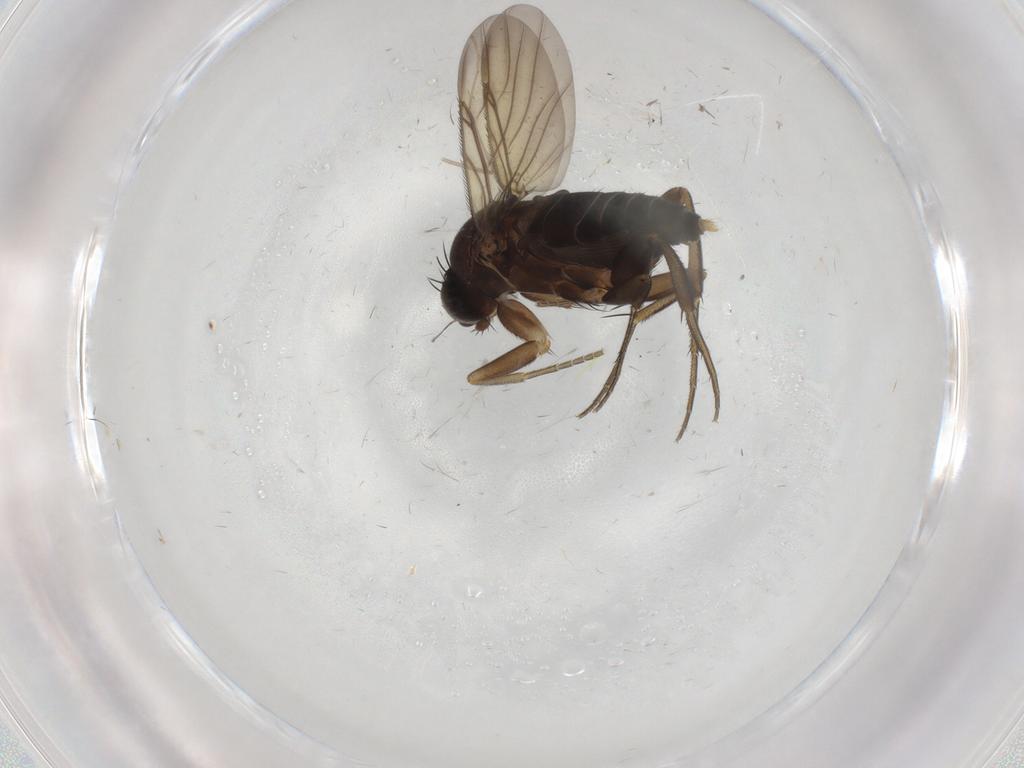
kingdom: Animalia
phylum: Arthropoda
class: Insecta
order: Diptera
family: Phoridae
